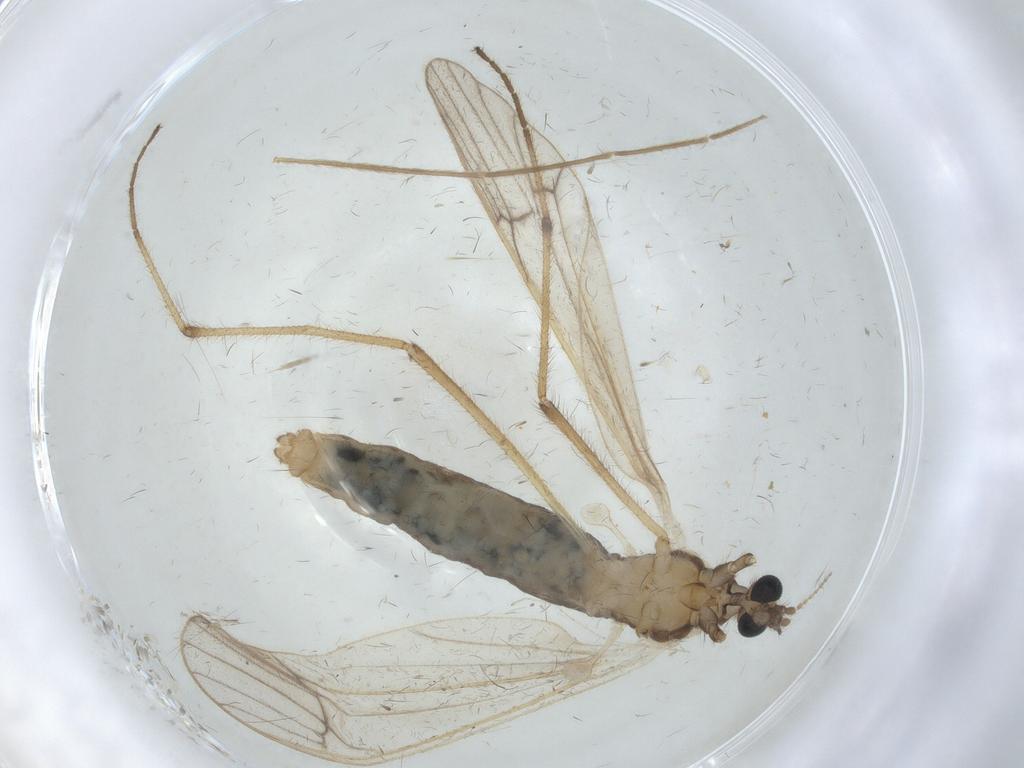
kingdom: Animalia
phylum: Arthropoda
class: Insecta
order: Diptera
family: Chironomidae
